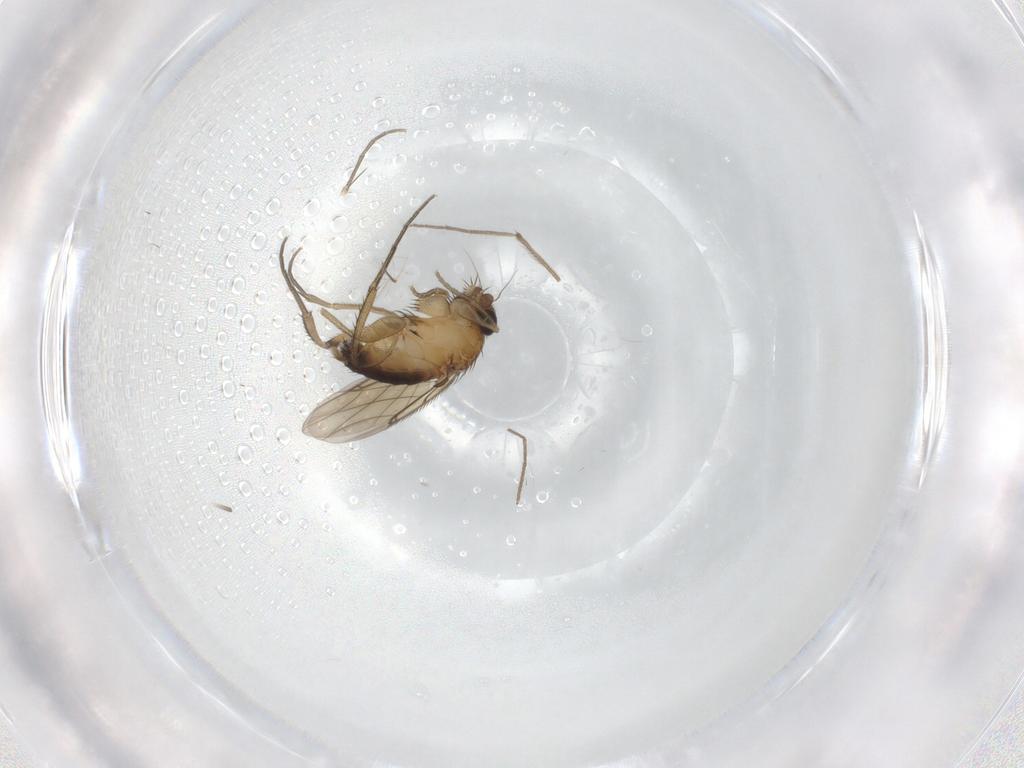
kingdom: Animalia
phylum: Arthropoda
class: Insecta
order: Diptera
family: Phoridae
